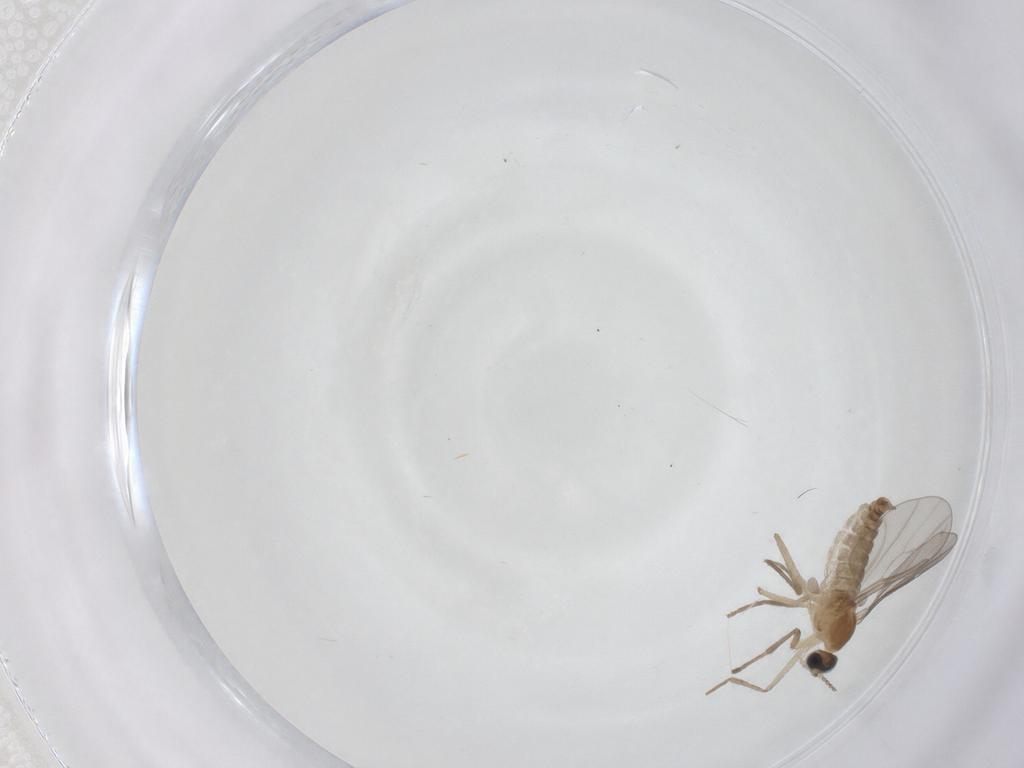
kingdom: Animalia
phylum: Arthropoda
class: Insecta
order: Diptera
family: Cecidomyiidae
